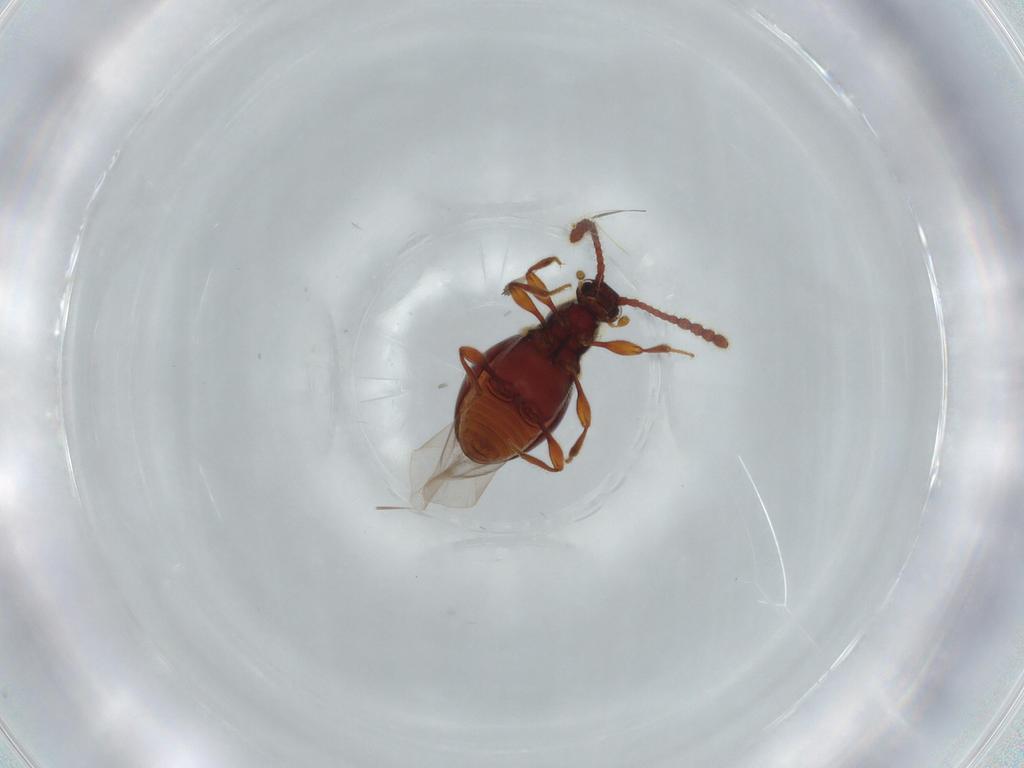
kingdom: Animalia
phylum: Arthropoda
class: Insecta
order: Coleoptera
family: Staphylinidae
